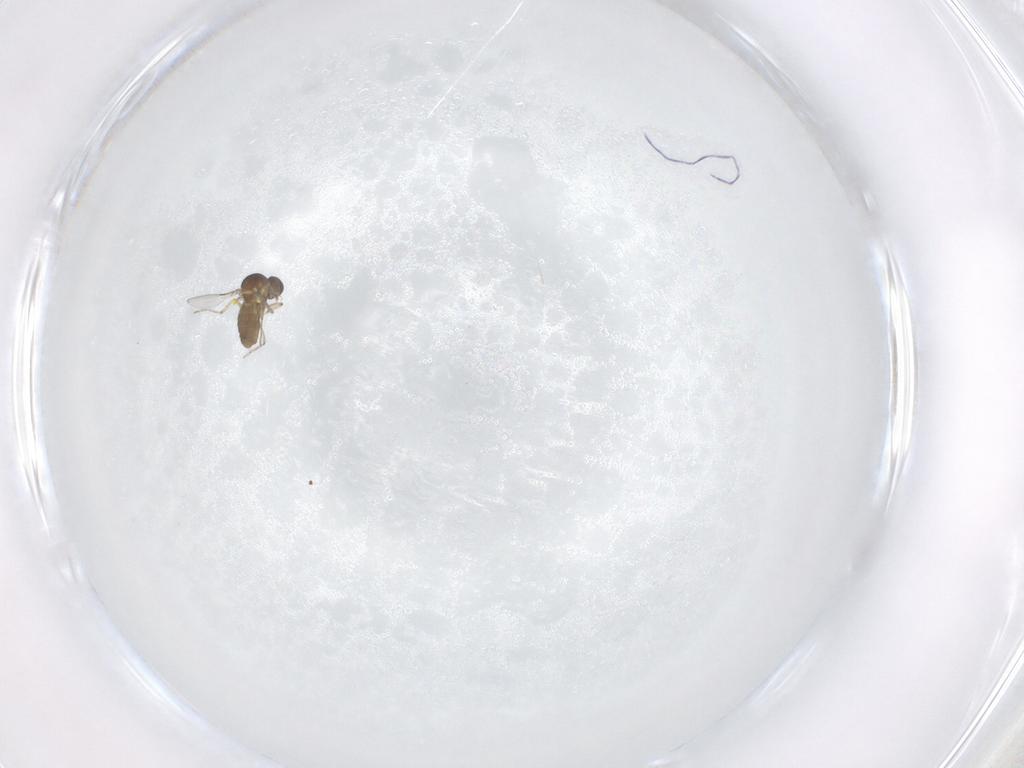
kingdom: Animalia
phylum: Arthropoda
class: Insecta
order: Diptera
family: Ceratopogonidae
